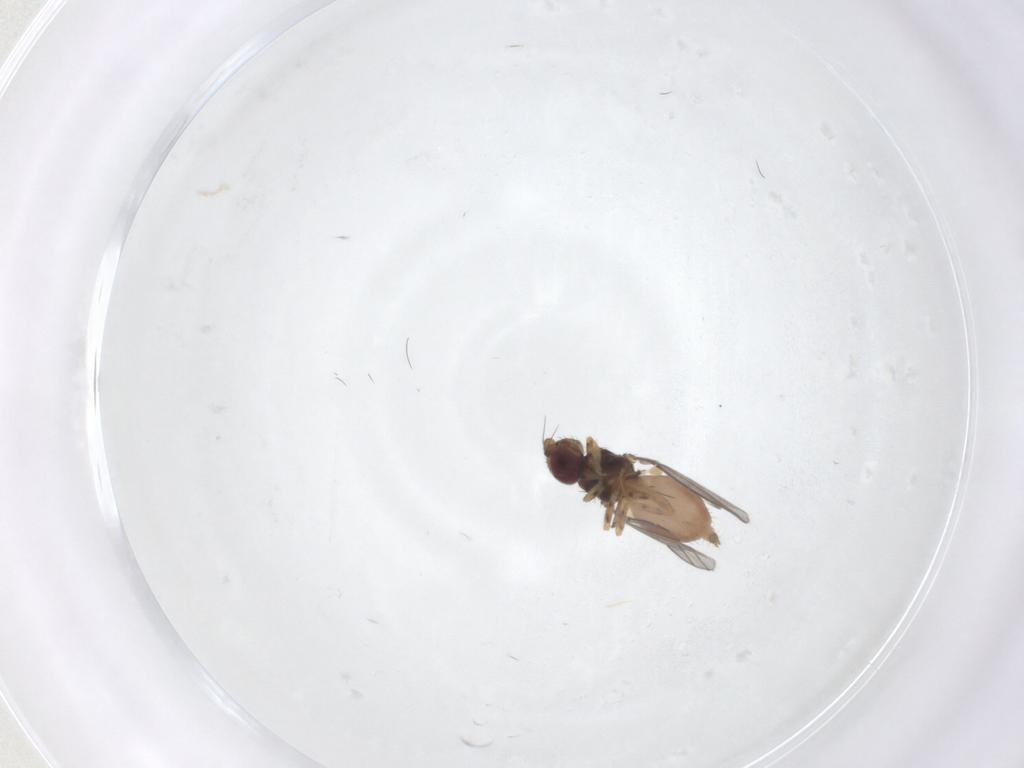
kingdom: Animalia
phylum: Arthropoda
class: Insecta
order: Diptera
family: Chloropidae
